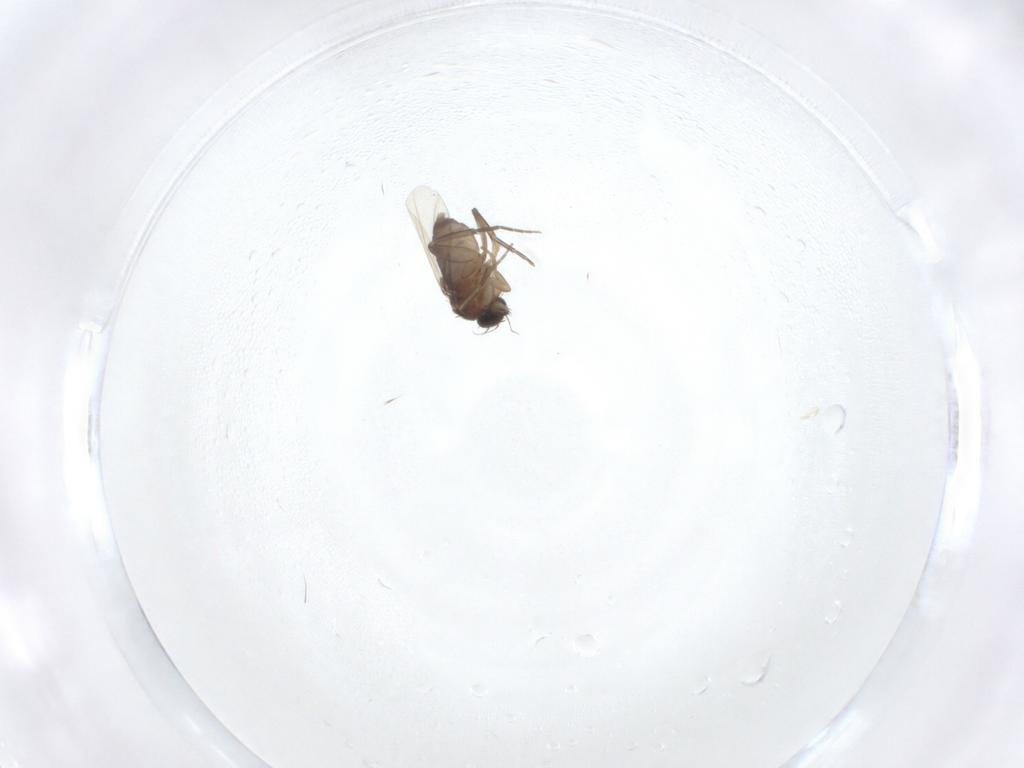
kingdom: Animalia
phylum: Arthropoda
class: Insecta
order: Diptera
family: Phoridae
